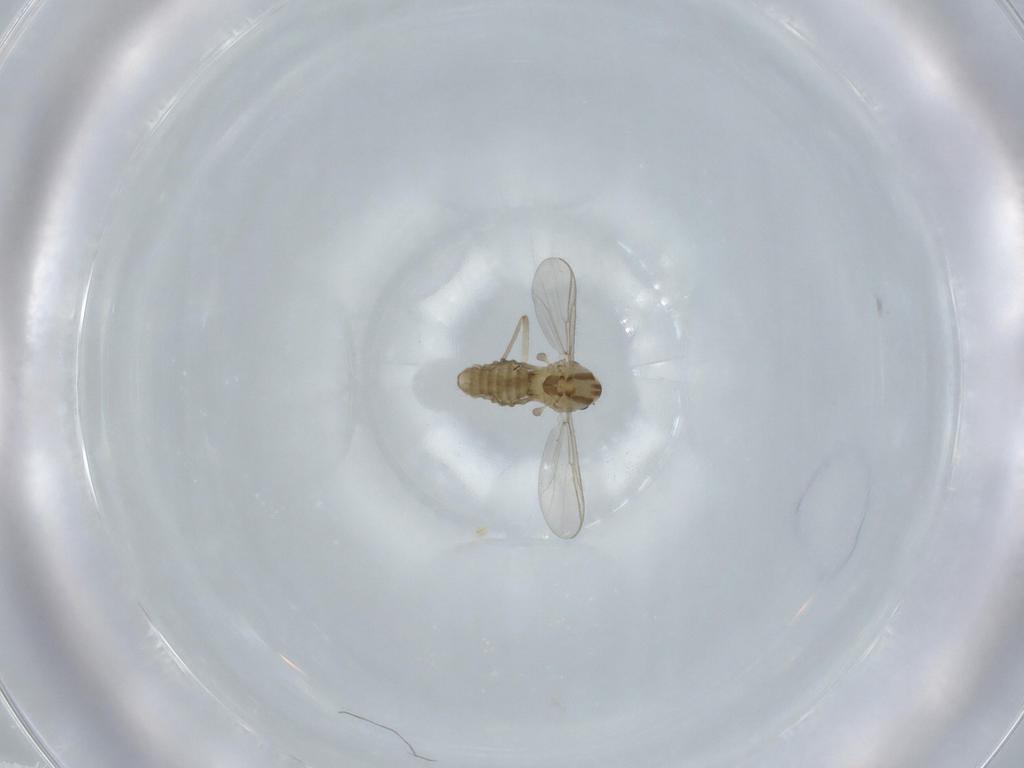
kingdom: Animalia
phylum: Arthropoda
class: Insecta
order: Diptera
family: Chironomidae
